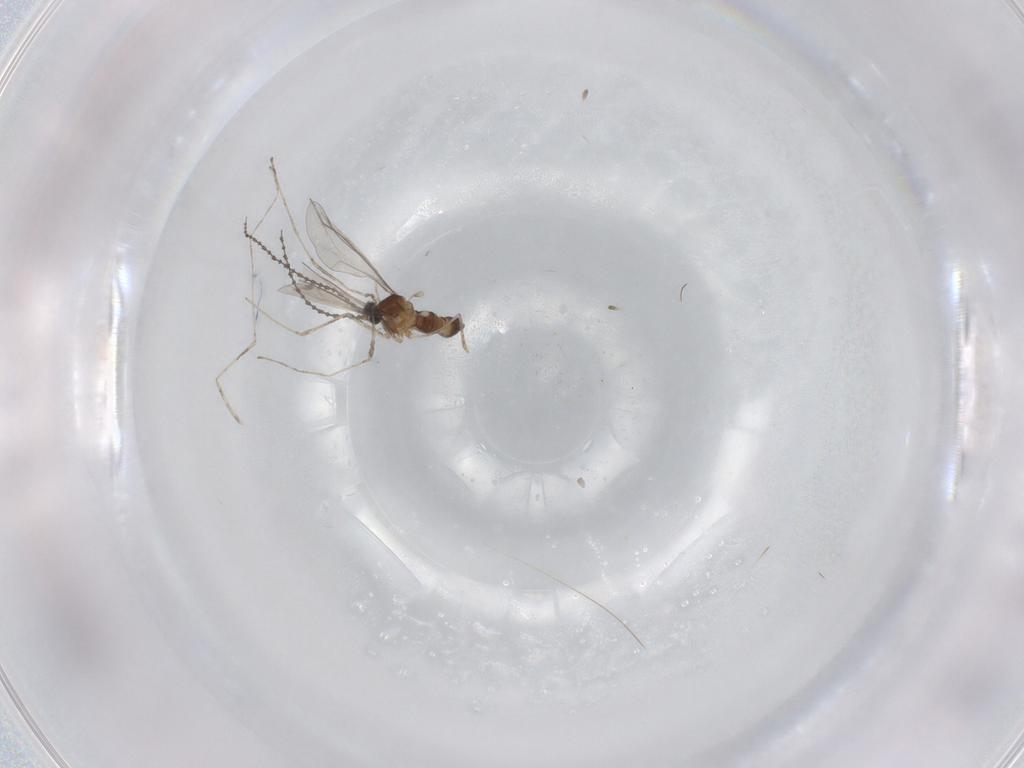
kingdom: Animalia
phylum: Arthropoda
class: Insecta
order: Diptera
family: Cecidomyiidae
